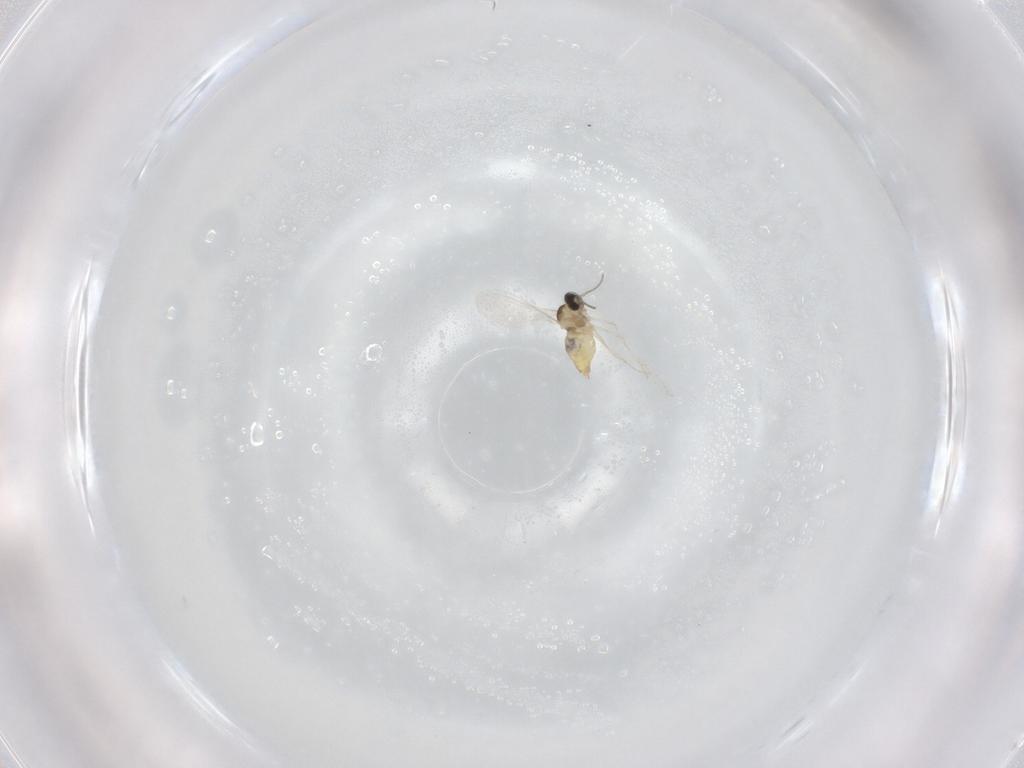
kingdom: Animalia
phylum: Arthropoda
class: Insecta
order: Diptera
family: Cecidomyiidae
